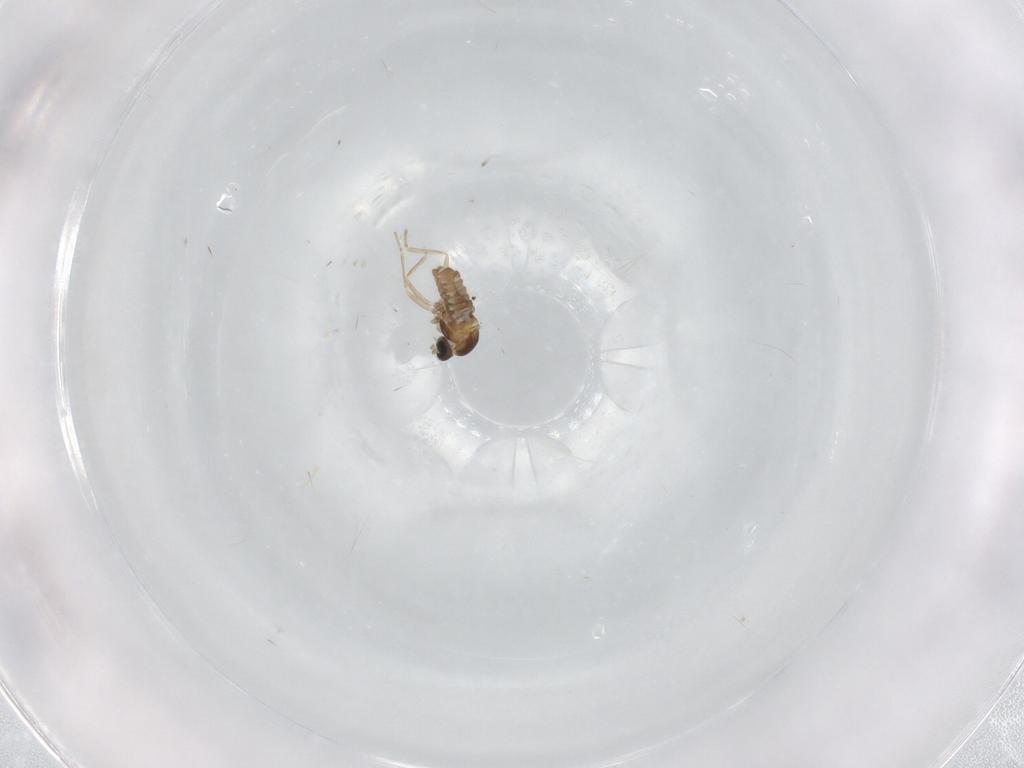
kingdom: Animalia
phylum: Arthropoda
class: Insecta
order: Diptera
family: Cecidomyiidae
